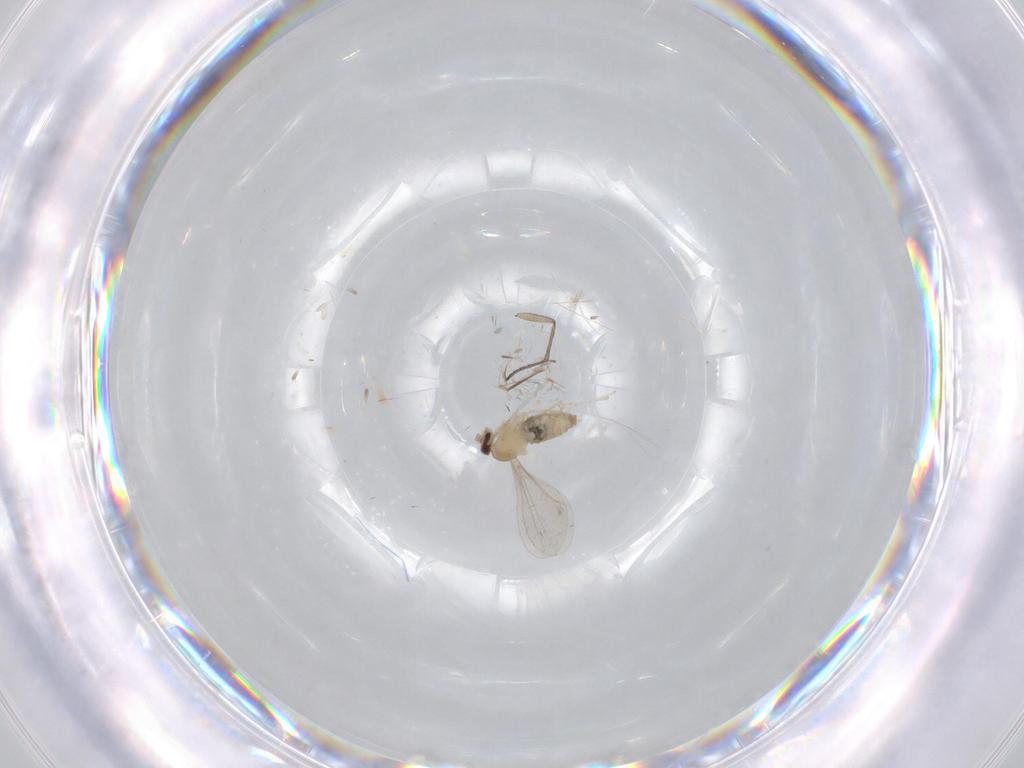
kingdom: Animalia
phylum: Arthropoda
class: Insecta
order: Diptera
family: Cecidomyiidae
